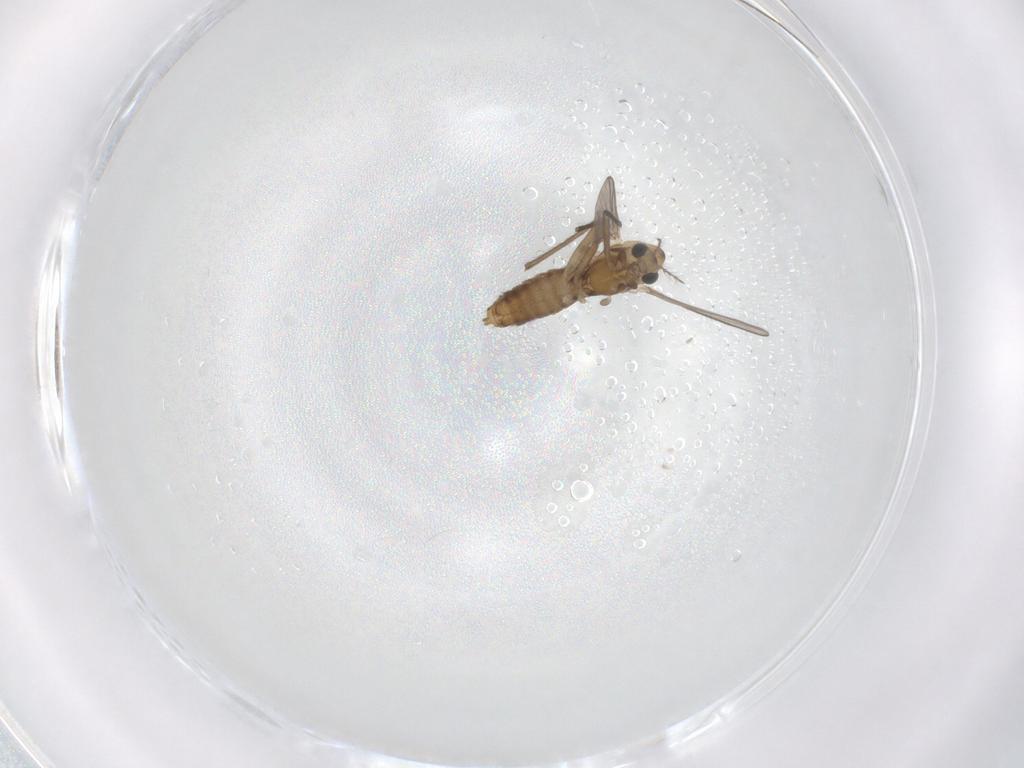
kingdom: Animalia
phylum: Arthropoda
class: Insecta
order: Diptera
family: Chironomidae
